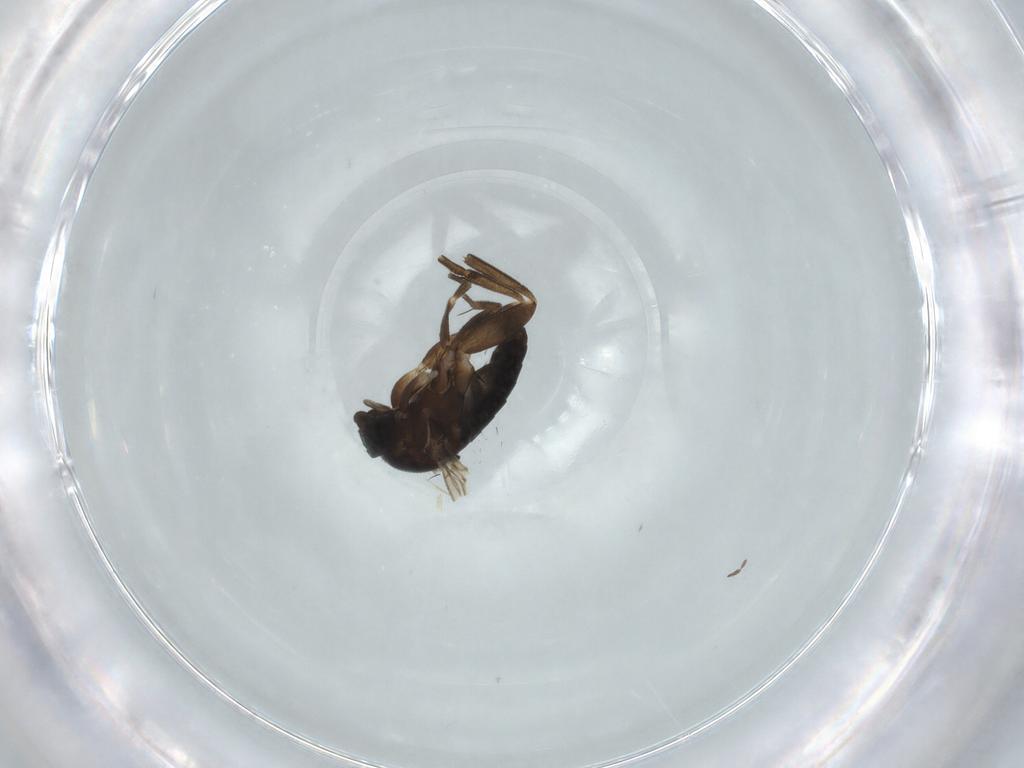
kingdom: Animalia
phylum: Arthropoda
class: Insecta
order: Diptera
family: Phoridae
